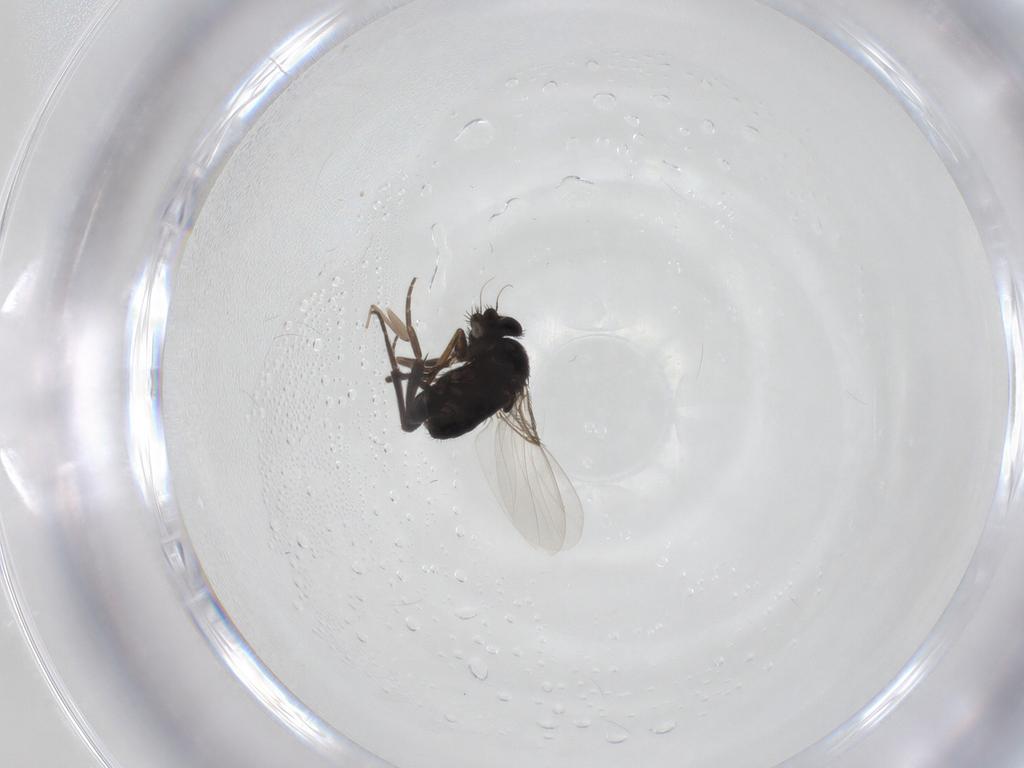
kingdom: Animalia
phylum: Arthropoda
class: Insecta
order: Diptera
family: Phoridae
